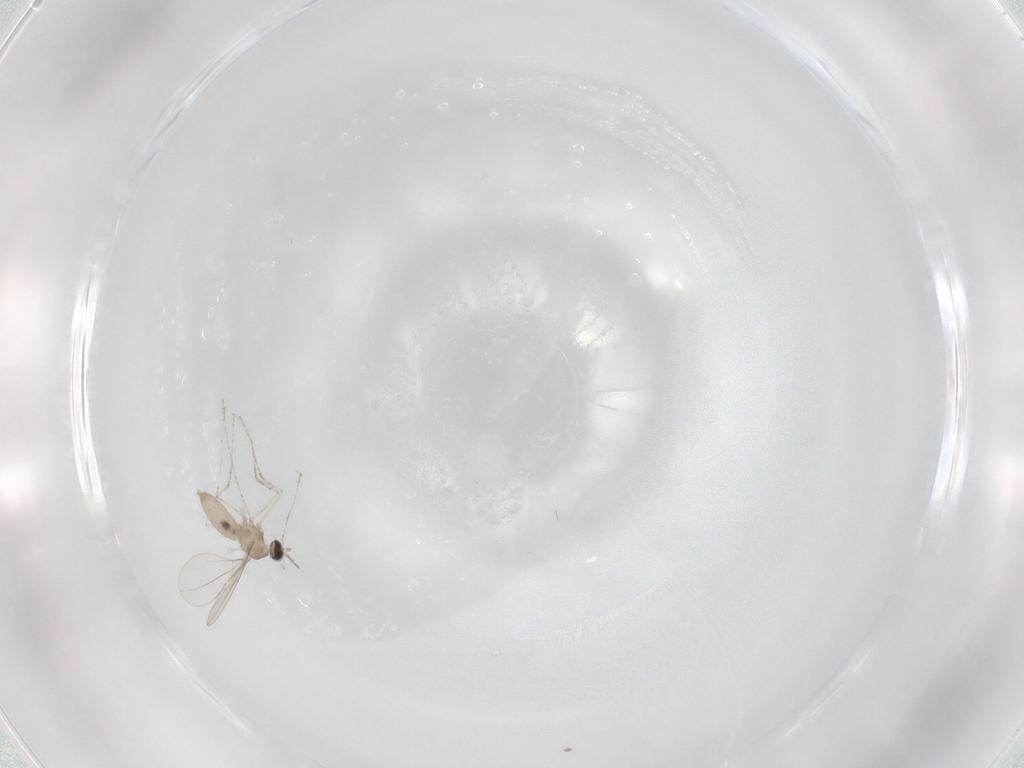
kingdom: Animalia
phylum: Arthropoda
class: Insecta
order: Diptera
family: Cecidomyiidae
